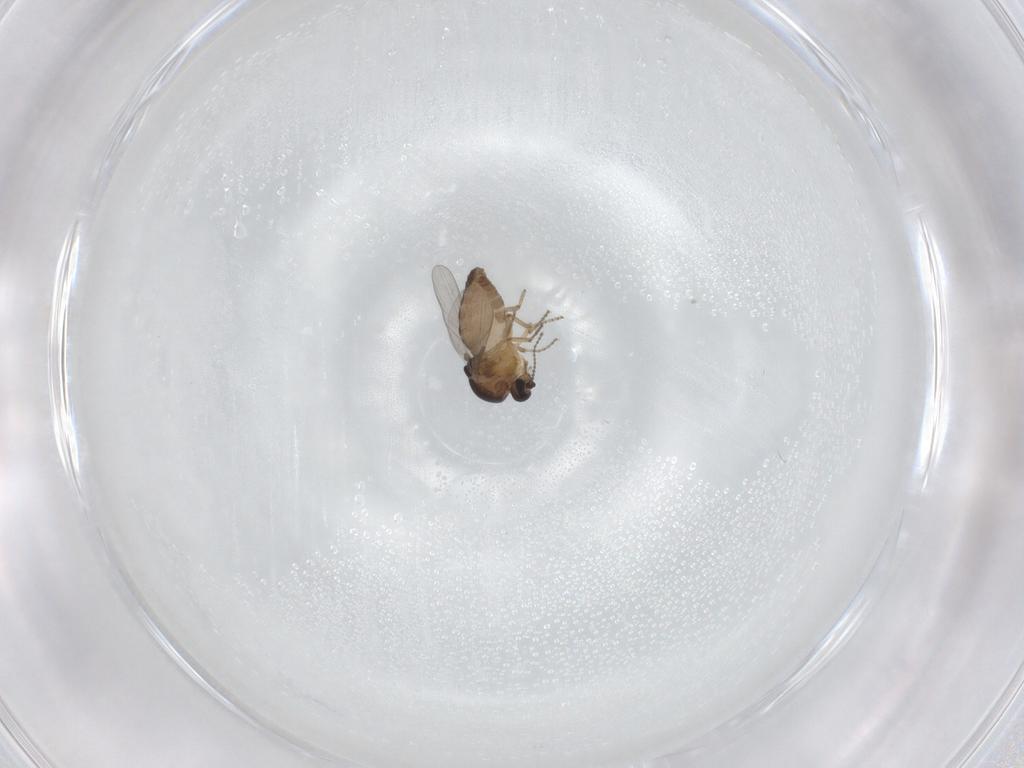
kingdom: Animalia
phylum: Arthropoda
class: Insecta
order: Diptera
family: Ceratopogonidae
